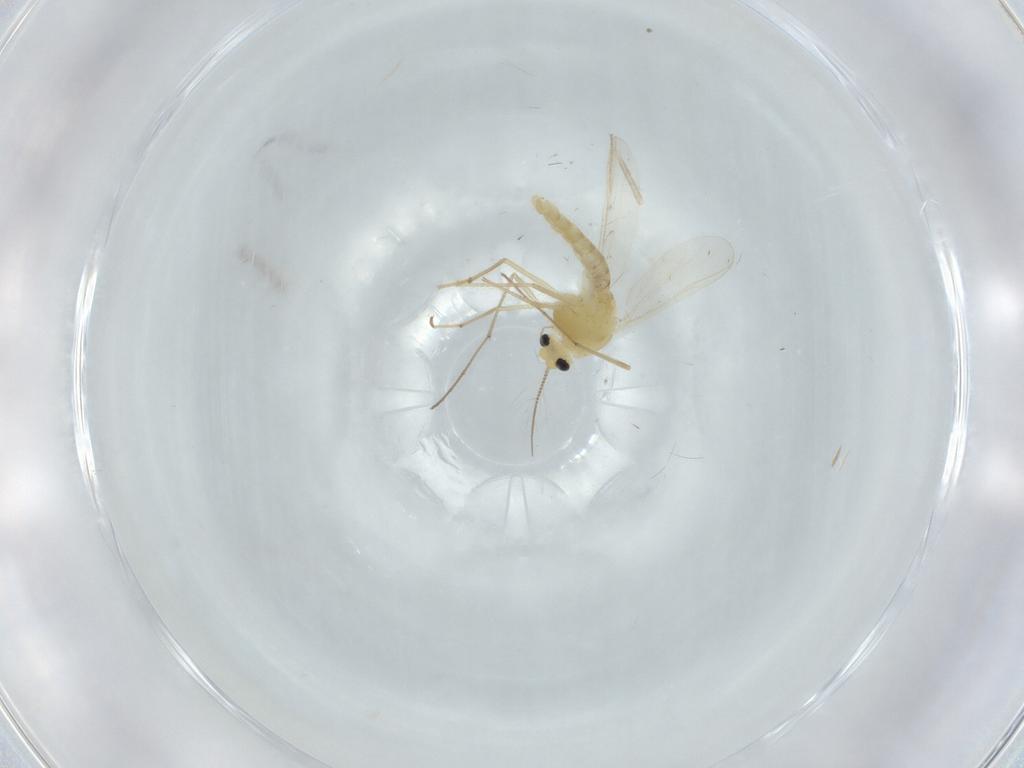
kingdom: Animalia
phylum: Arthropoda
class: Insecta
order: Diptera
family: Chironomidae
